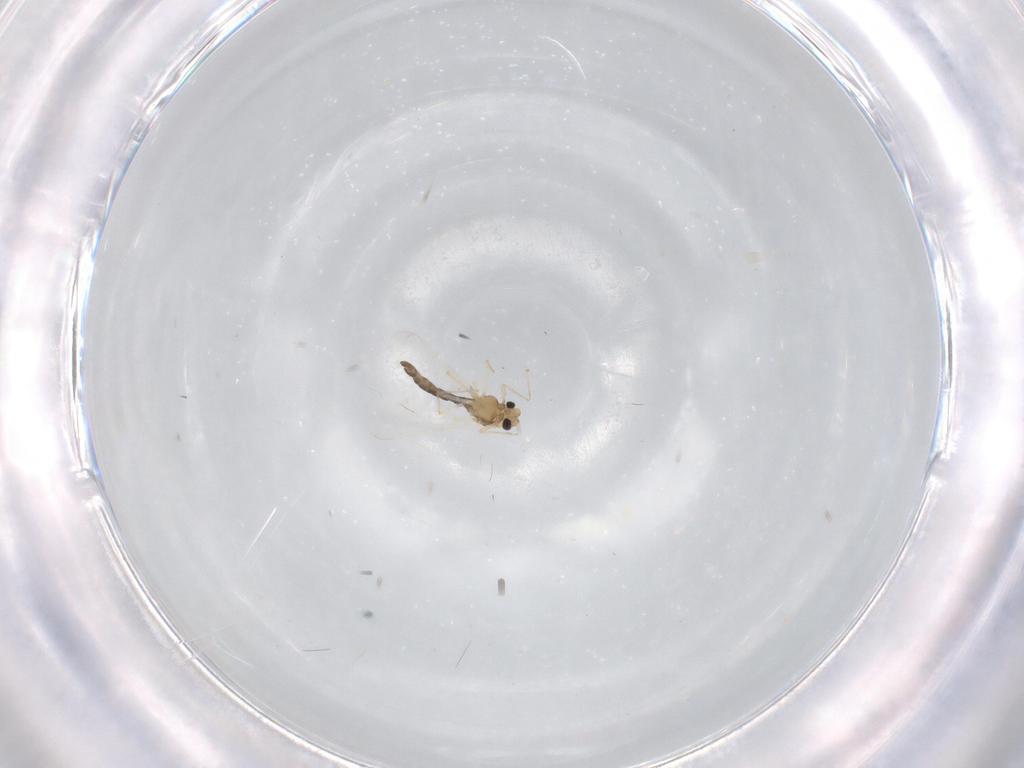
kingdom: Animalia
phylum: Arthropoda
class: Insecta
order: Diptera
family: Chironomidae
